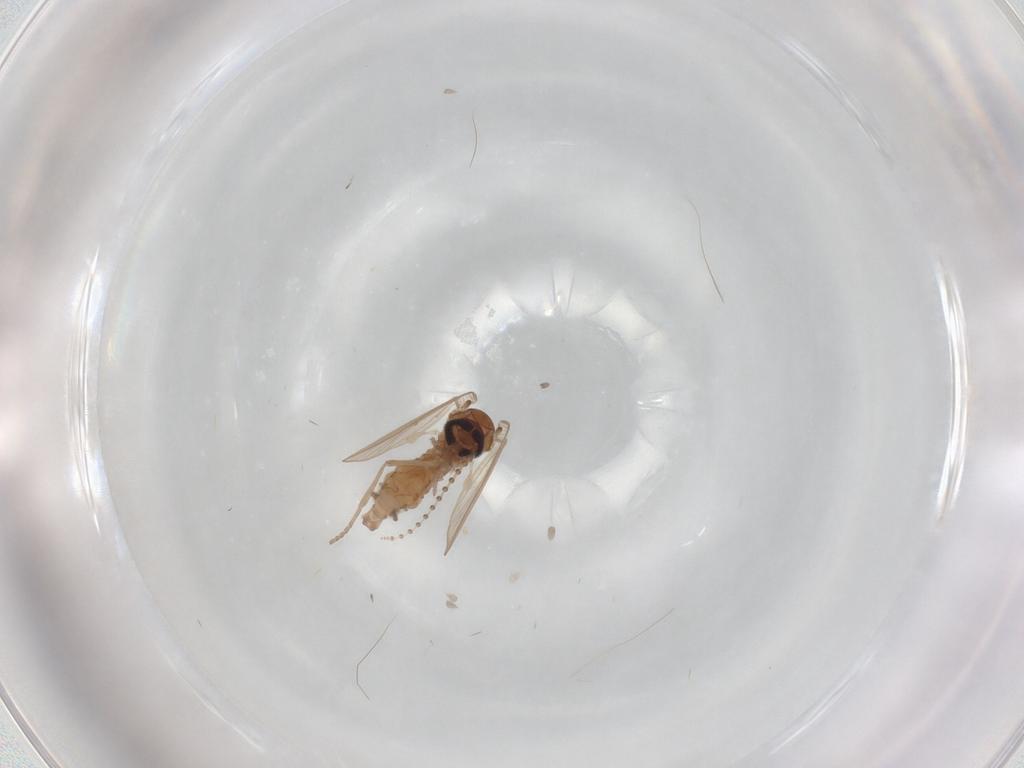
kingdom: Animalia
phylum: Arthropoda
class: Insecta
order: Diptera
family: Psychodidae
